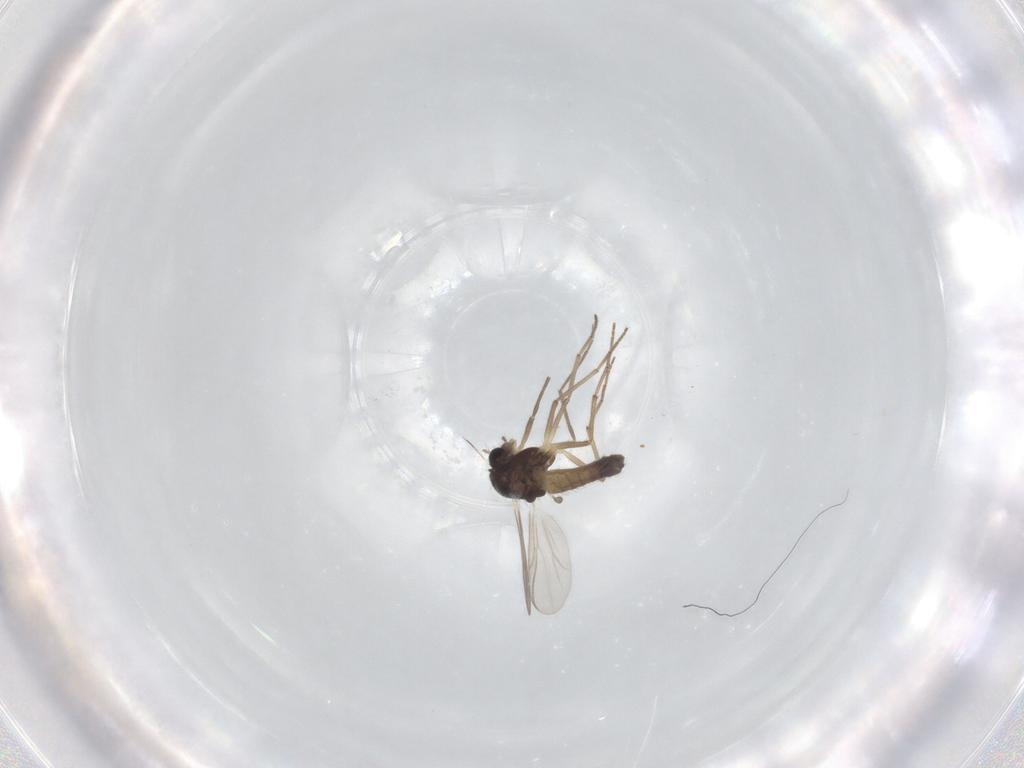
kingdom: Animalia
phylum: Arthropoda
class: Insecta
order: Diptera
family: Chironomidae
